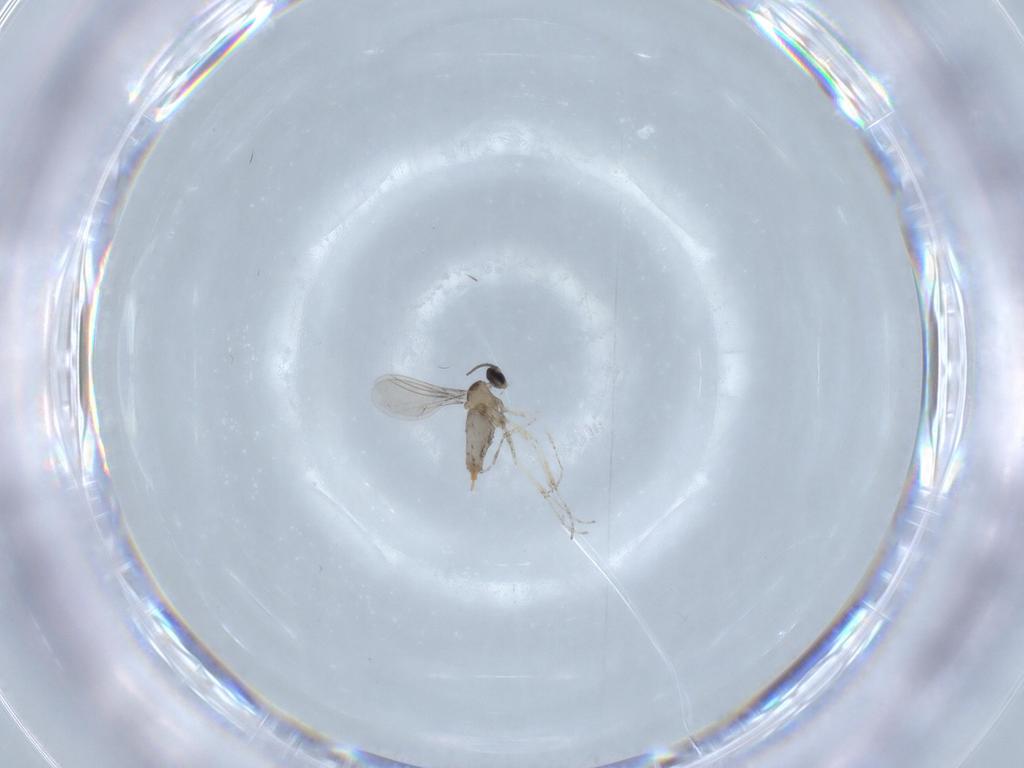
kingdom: Animalia
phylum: Arthropoda
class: Insecta
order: Diptera
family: Cecidomyiidae
